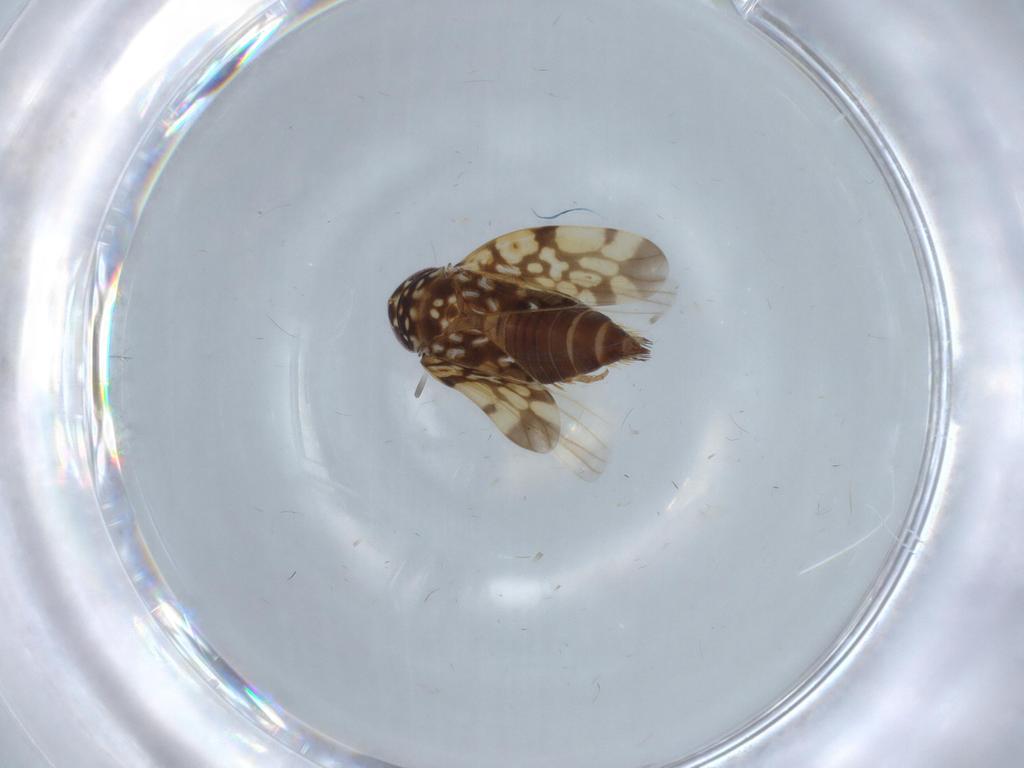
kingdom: Animalia
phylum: Arthropoda
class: Insecta
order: Hemiptera
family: Cicadellidae
